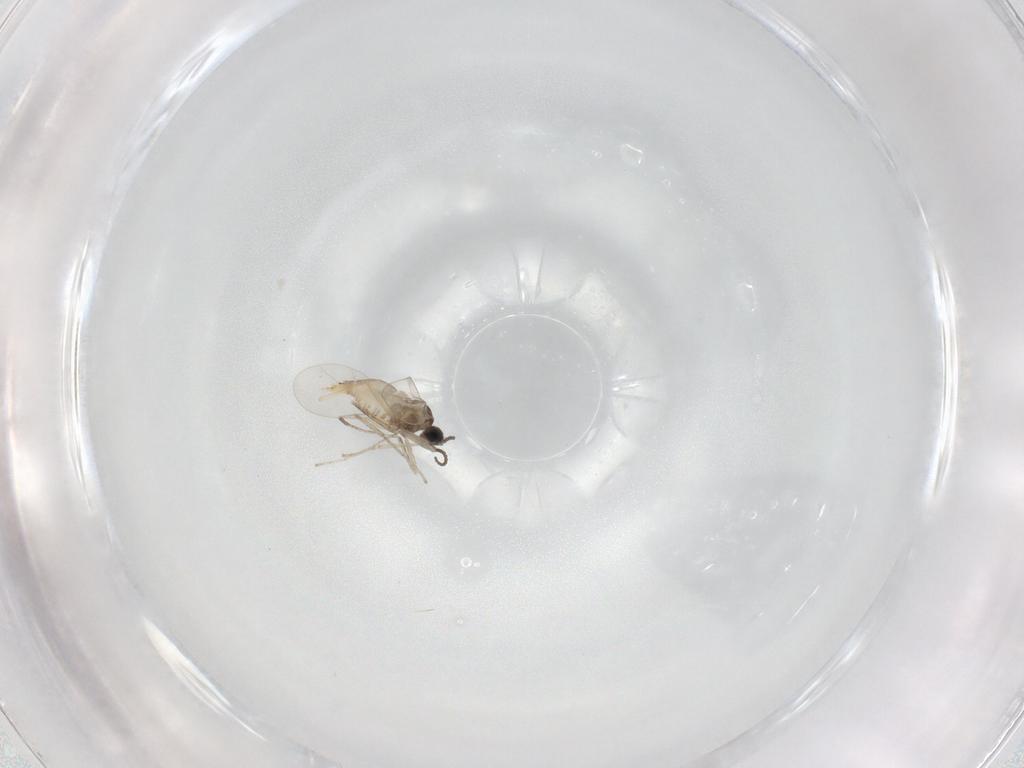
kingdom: Animalia
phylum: Arthropoda
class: Insecta
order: Diptera
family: Cecidomyiidae
